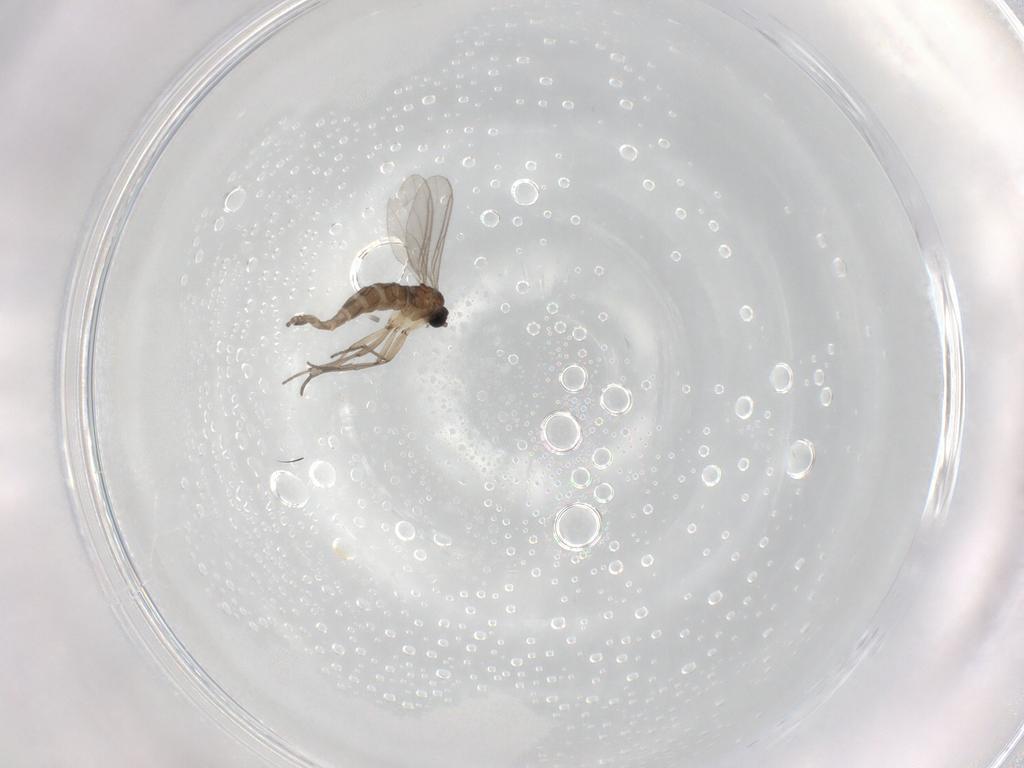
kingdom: Animalia
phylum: Arthropoda
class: Insecta
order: Diptera
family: Sciaridae
